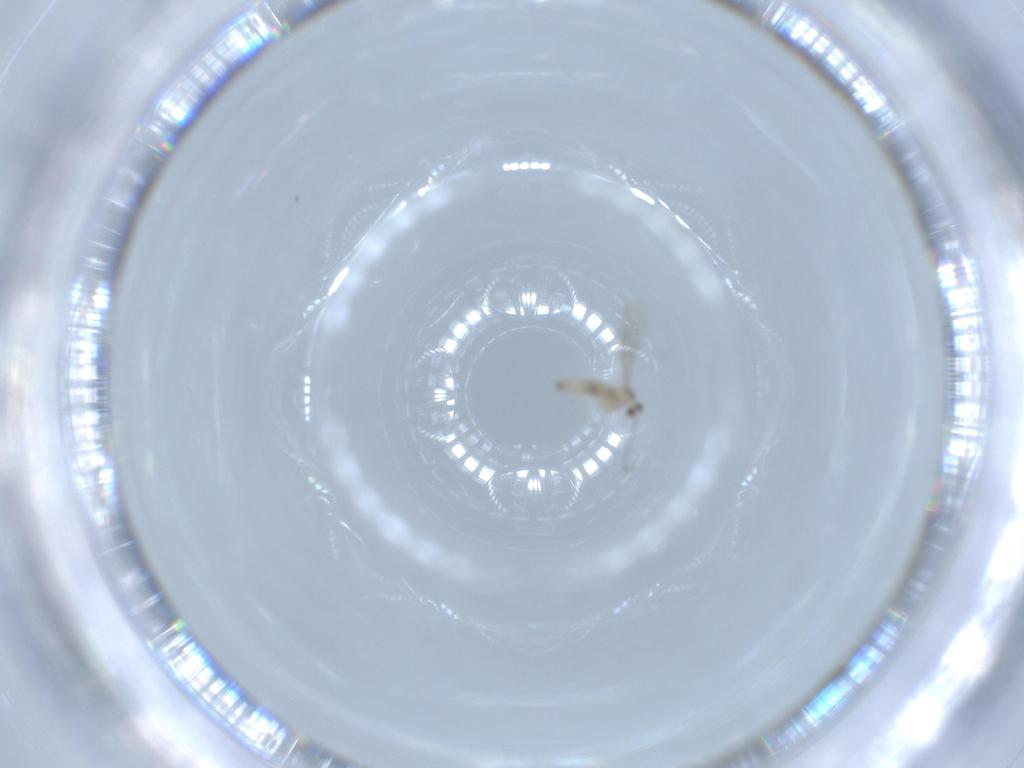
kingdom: Animalia
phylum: Arthropoda
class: Insecta
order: Diptera
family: Cecidomyiidae
